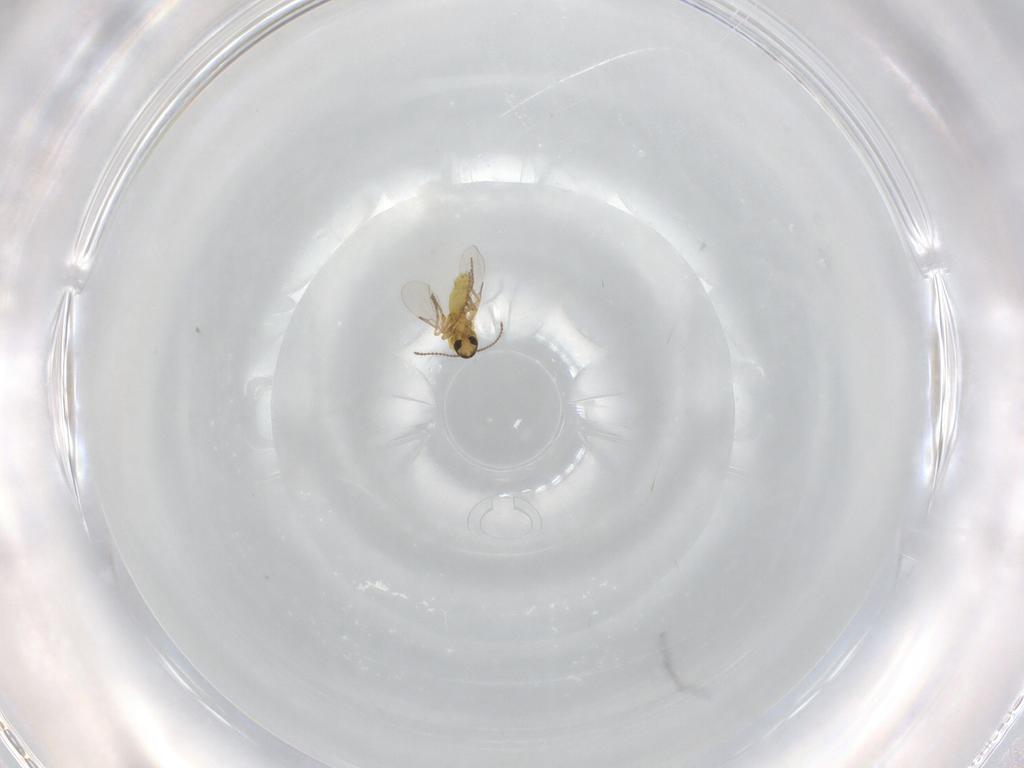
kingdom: Animalia
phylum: Arthropoda
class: Insecta
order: Diptera
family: Ceratopogonidae
